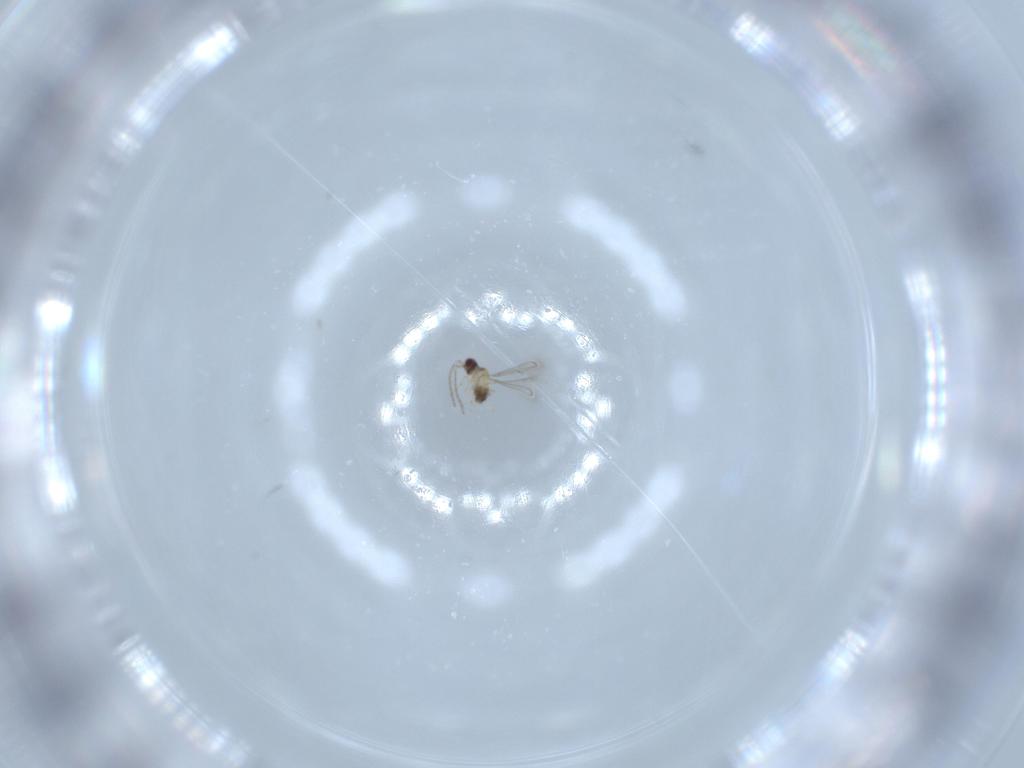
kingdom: Animalia
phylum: Arthropoda
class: Insecta
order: Hymenoptera
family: Mymaridae
